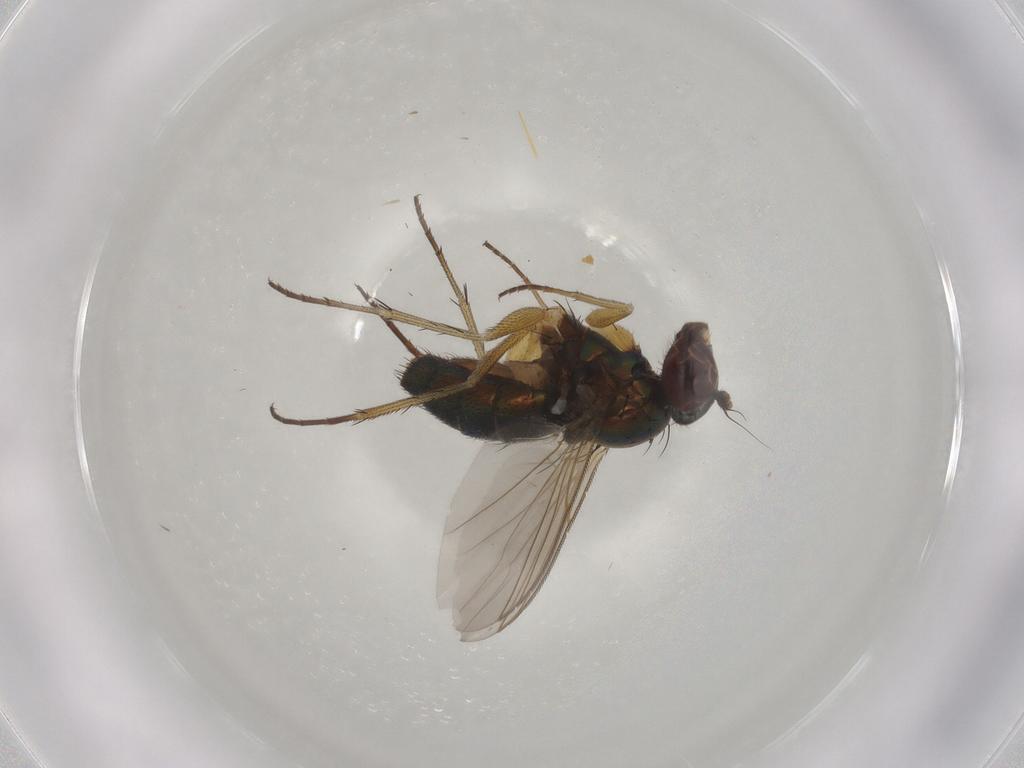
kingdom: Animalia
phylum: Arthropoda
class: Insecta
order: Diptera
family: Dolichopodidae
